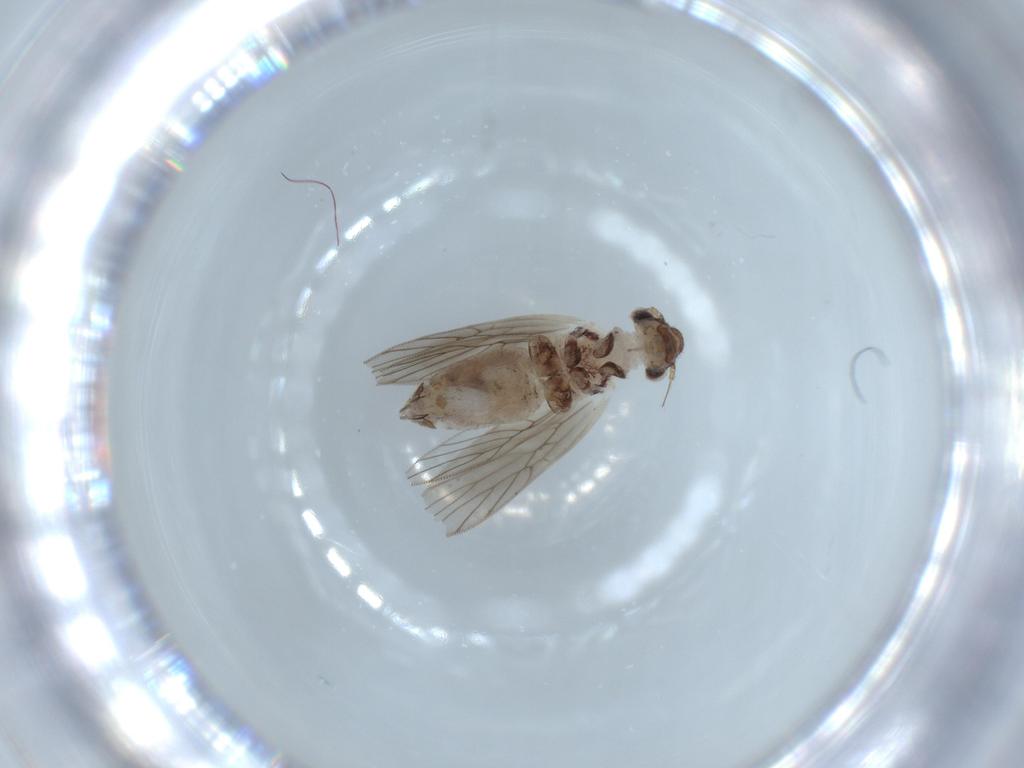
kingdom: Animalia
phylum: Arthropoda
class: Insecta
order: Psocodea
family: Lepidopsocidae
